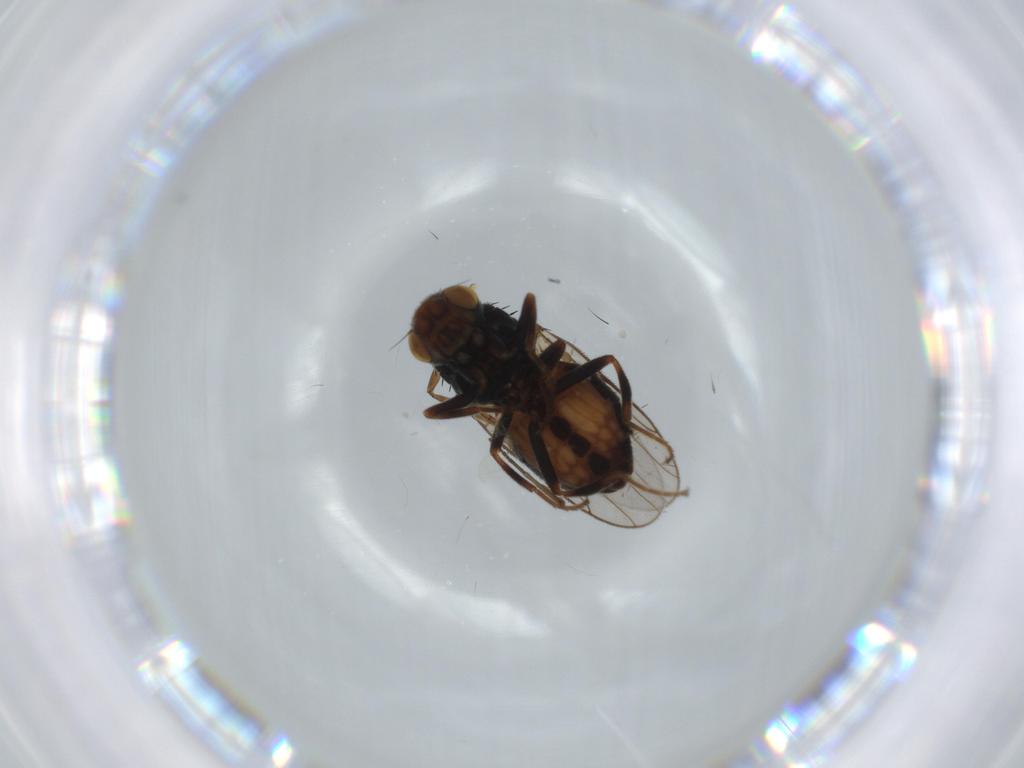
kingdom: Animalia
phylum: Arthropoda
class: Insecta
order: Diptera
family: Chloropidae
